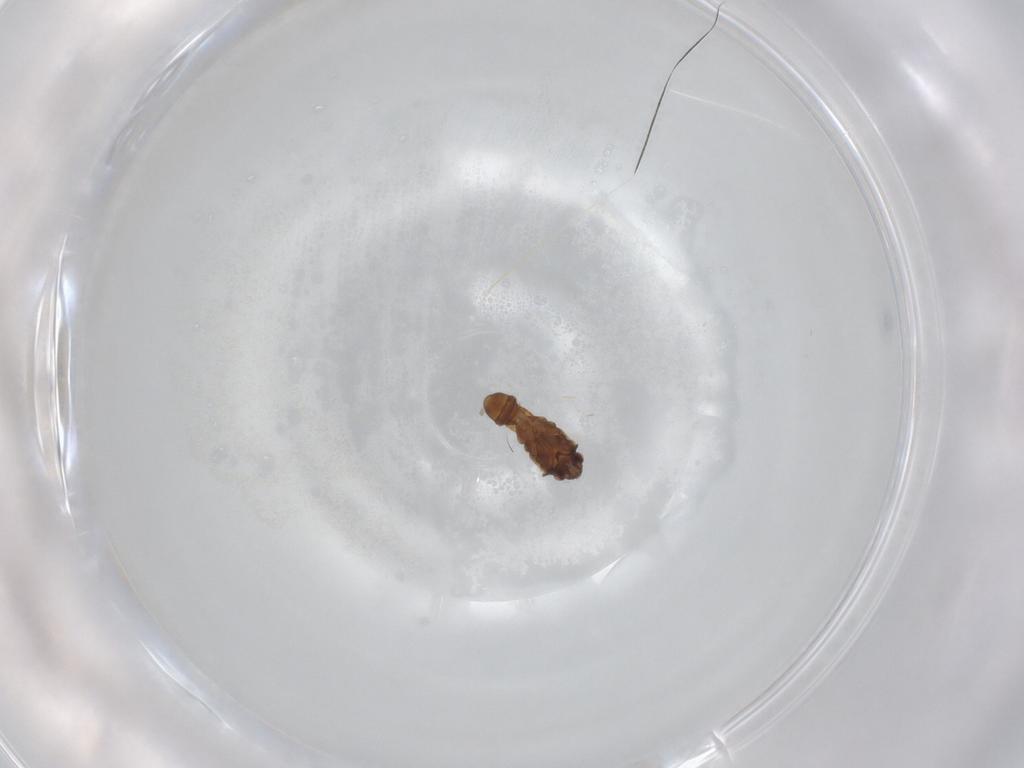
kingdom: Animalia
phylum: Arthropoda
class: Insecta
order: Hemiptera
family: Ceratocombidae
